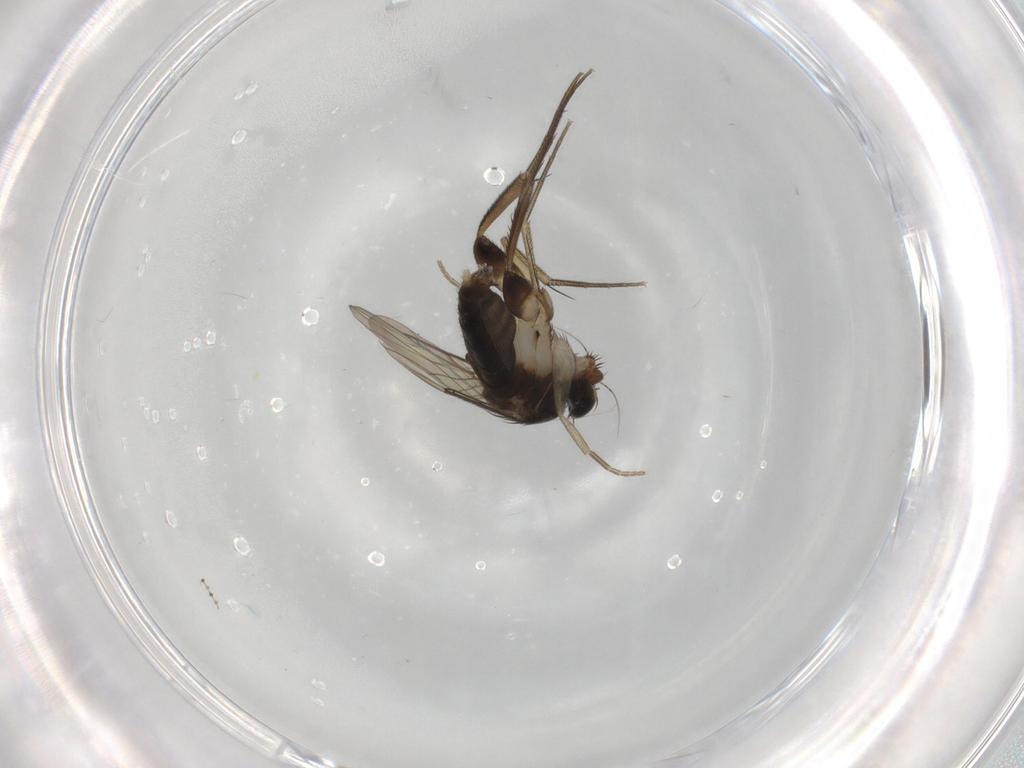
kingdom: Animalia
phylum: Arthropoda
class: Insecta
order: Diptera
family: Phoridae
